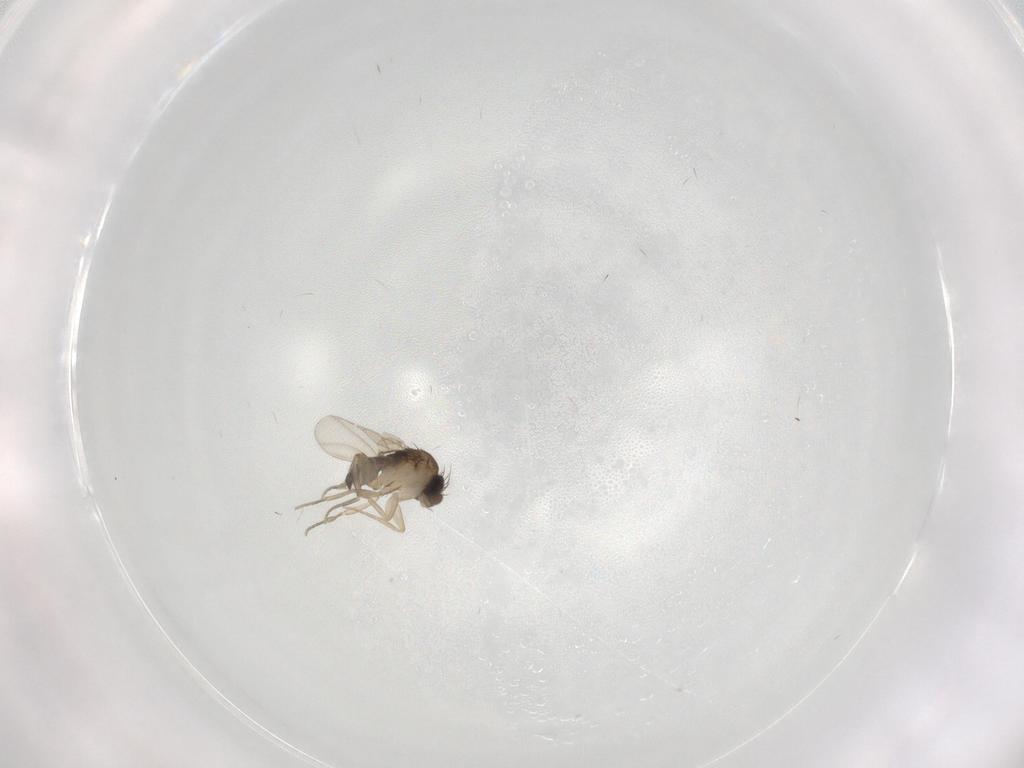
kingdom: Animalia
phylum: Arthropoda
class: Insecta
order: Diptera
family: Phoridae
